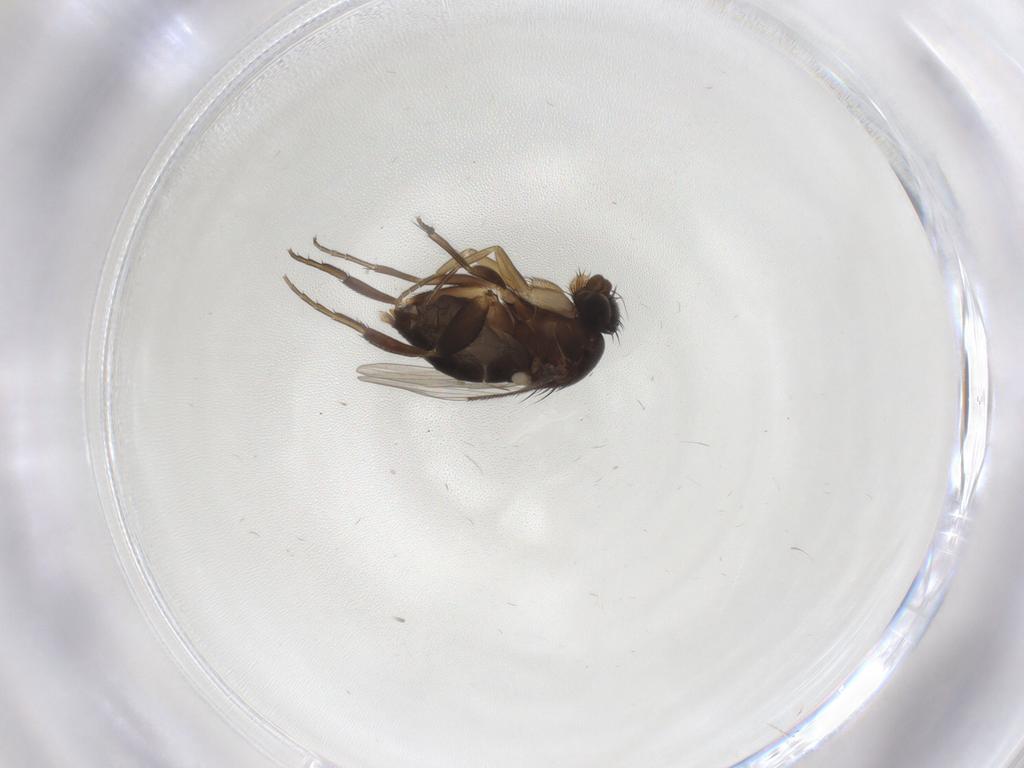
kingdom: Animalia
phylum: Arthropoda
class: Insecta
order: Diptera
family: Phoridae
